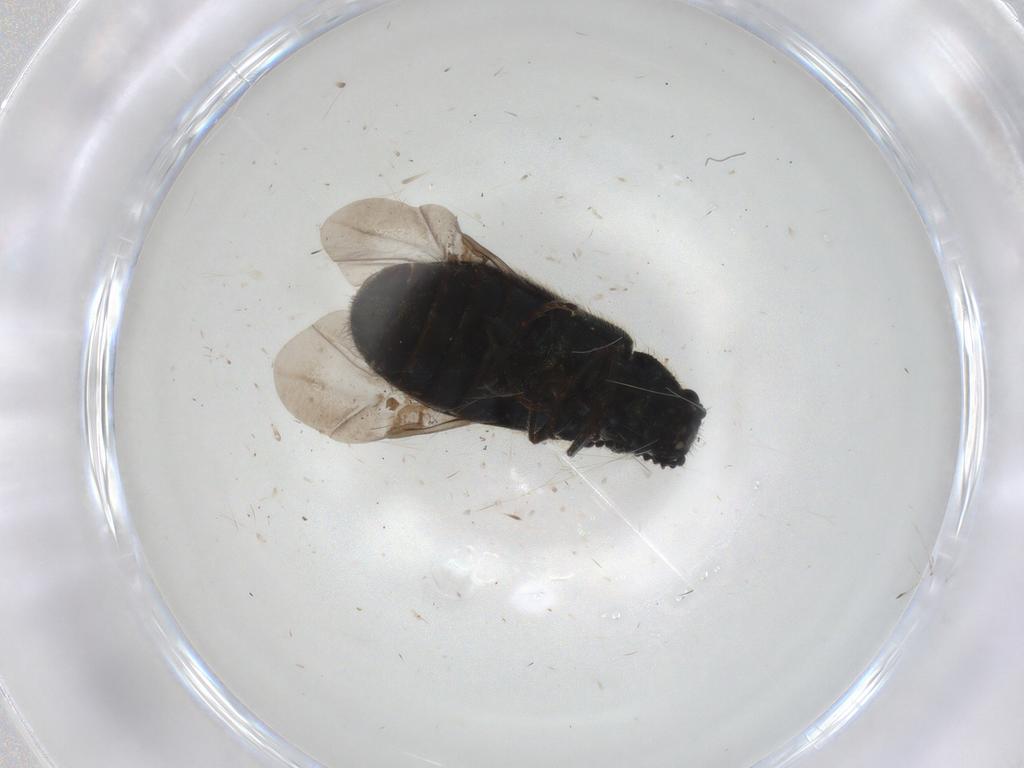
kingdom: Animalia
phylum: Arthropoda
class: Insecta
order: Coleoptera
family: Melyridae
